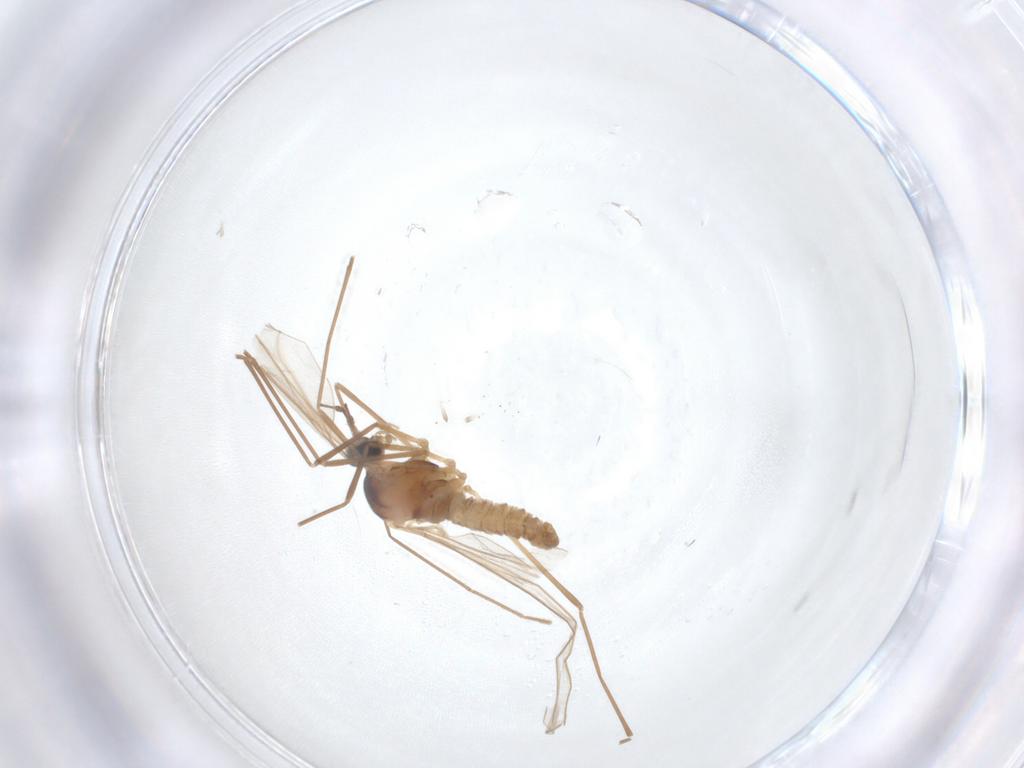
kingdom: Animalia
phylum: Arthropoda
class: Insecta
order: Diptera
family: Cecidomyiidae
